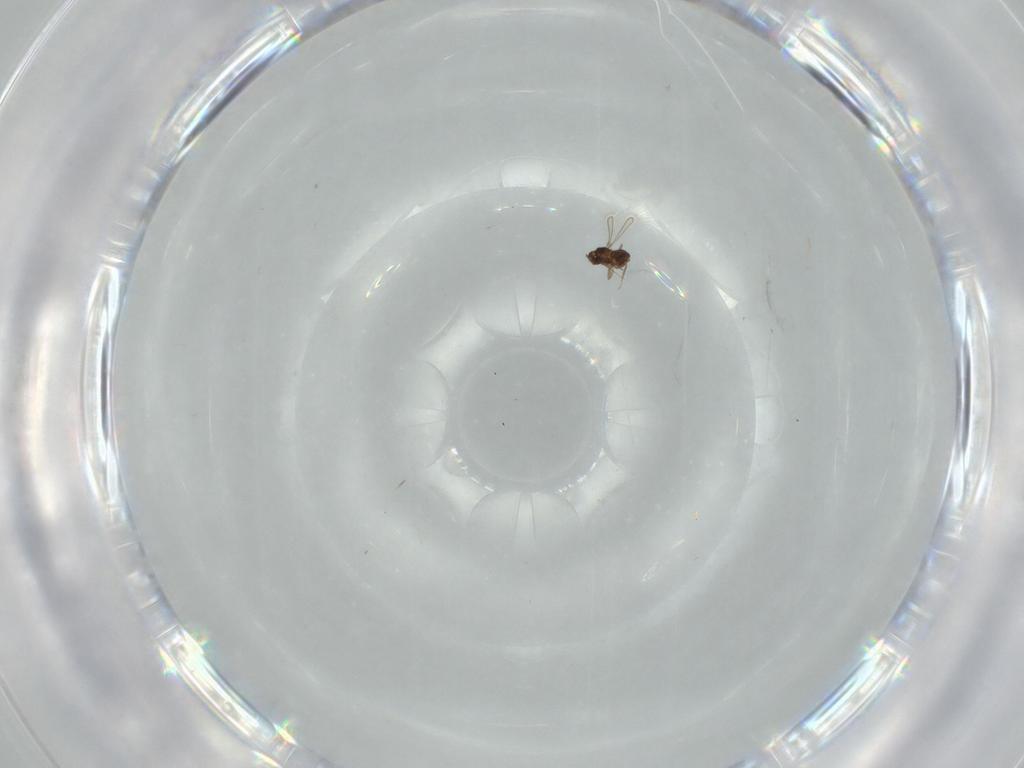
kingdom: Animalia
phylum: Arthropoda
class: Insecta
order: Hymenoptera
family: Mymaridae
